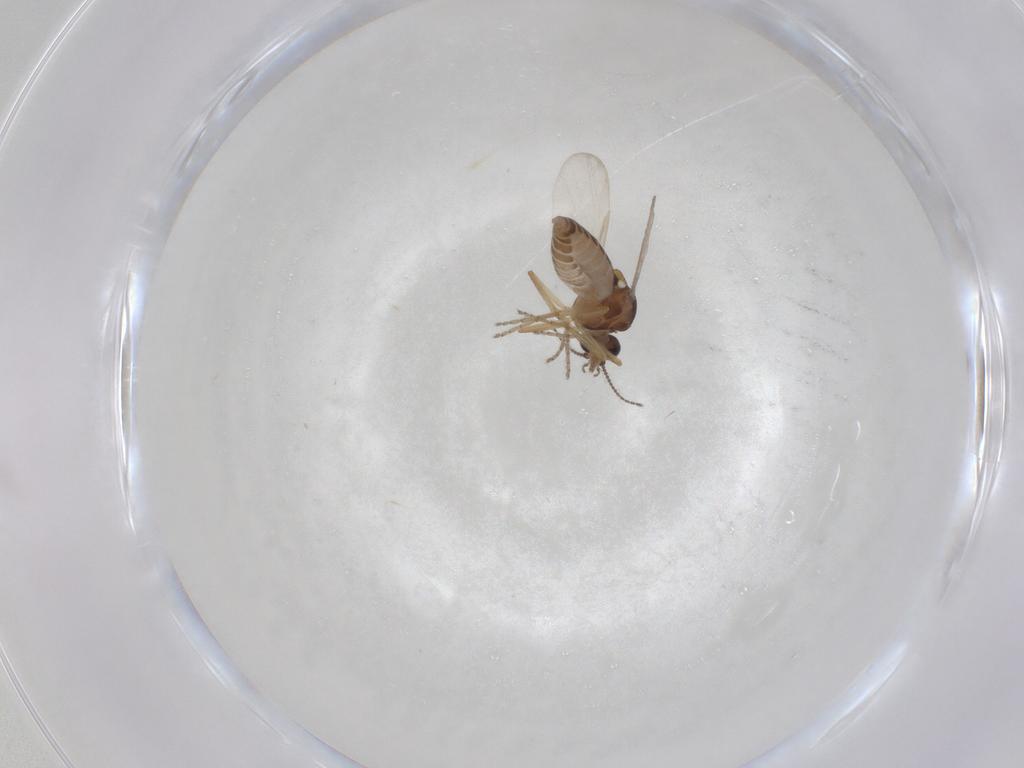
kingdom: Animalia
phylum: Arthropoda
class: Insecta
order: Diptera
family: Ceratopogonidae
